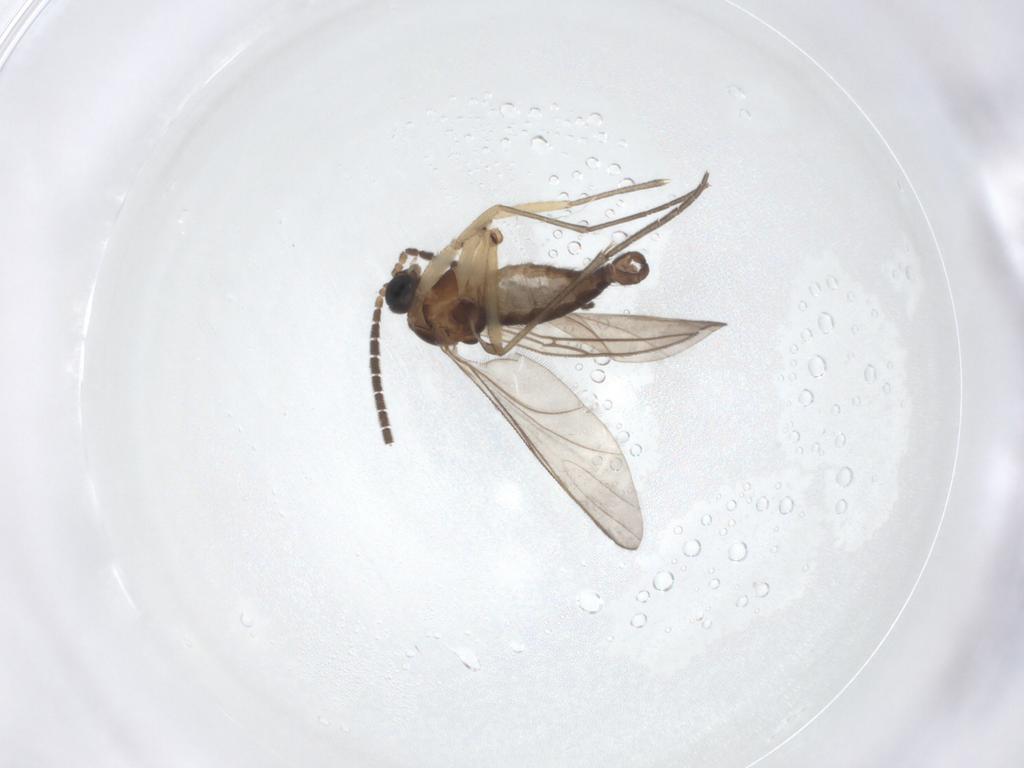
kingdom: Animalia
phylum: Arthropoda
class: Insecta
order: Diptera
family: Sciaridae
